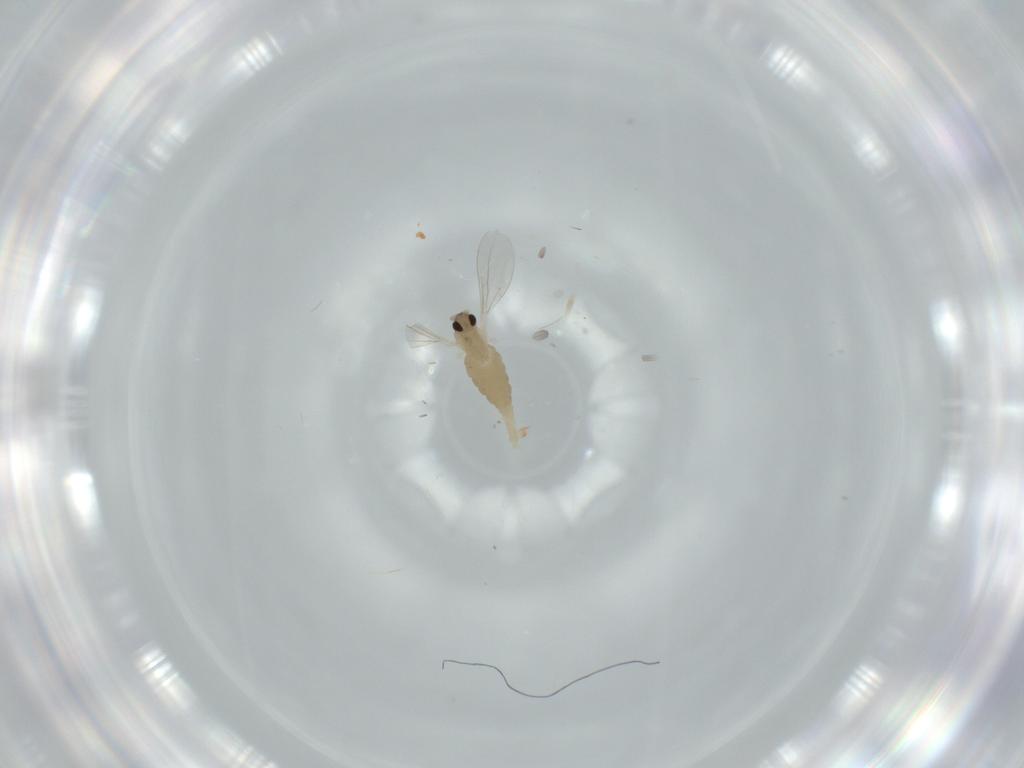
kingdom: Animalia
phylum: Arthropoda
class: Insecta
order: Diptera
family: Cecidomyiidae
